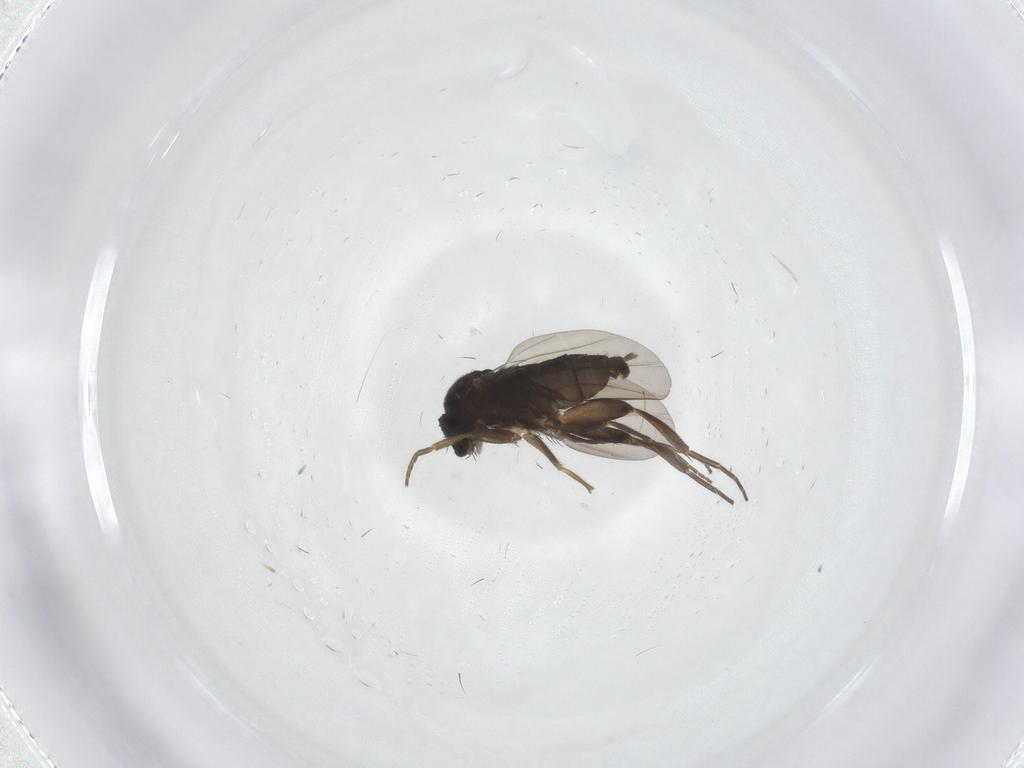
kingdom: Animalia
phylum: Arthropoda
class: Insecta
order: Diptera
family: Phoridae
